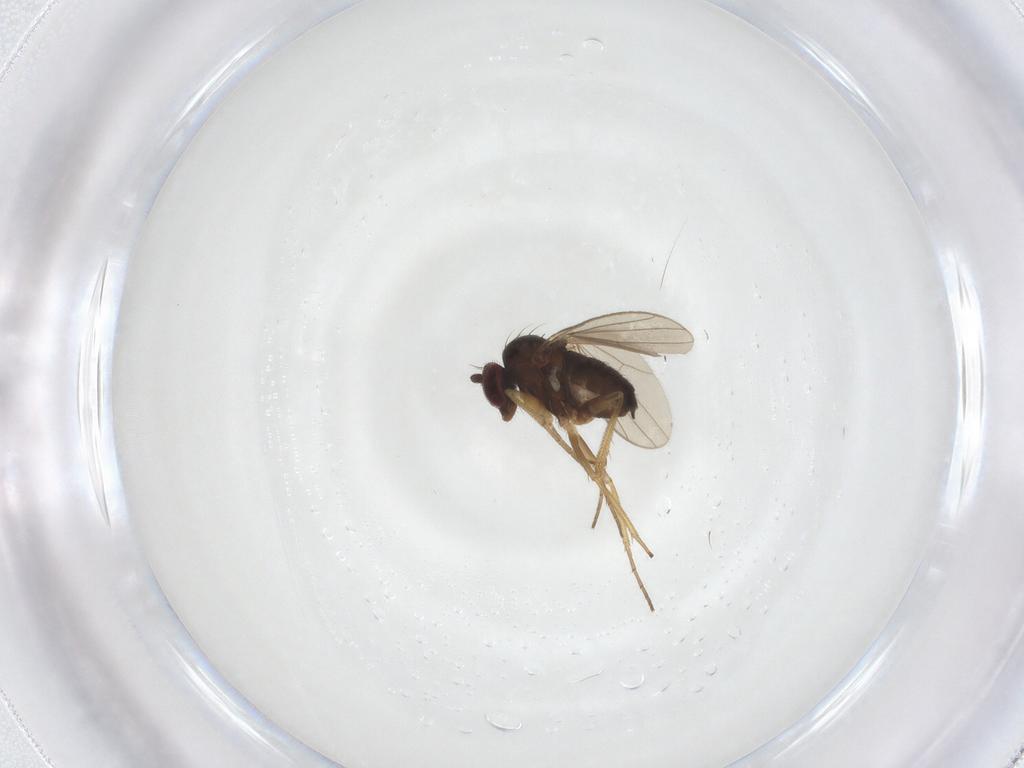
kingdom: Animalia
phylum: Arthropoda
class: Insecta
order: Diptera
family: Dolichopodidae
